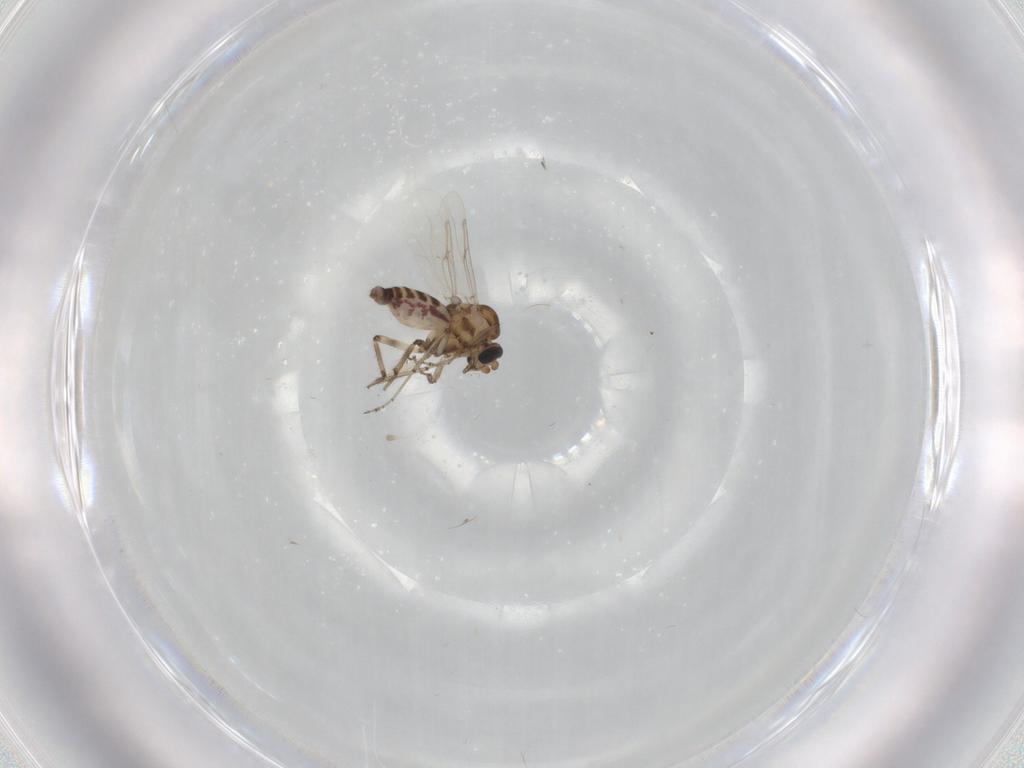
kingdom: Animalia
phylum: Arthropoda
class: Insecta
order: Diptera
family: Ceratopogonidae
